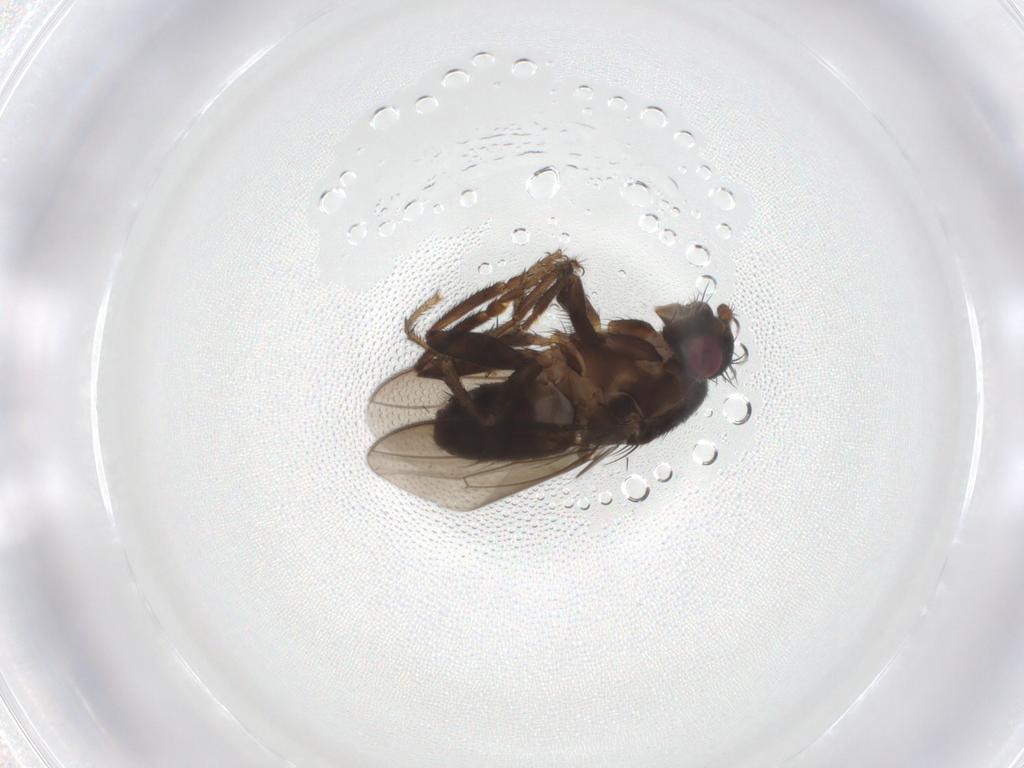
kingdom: Animalia
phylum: Arthropoda
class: Insecta
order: Diptera
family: Sphaeroceridae
